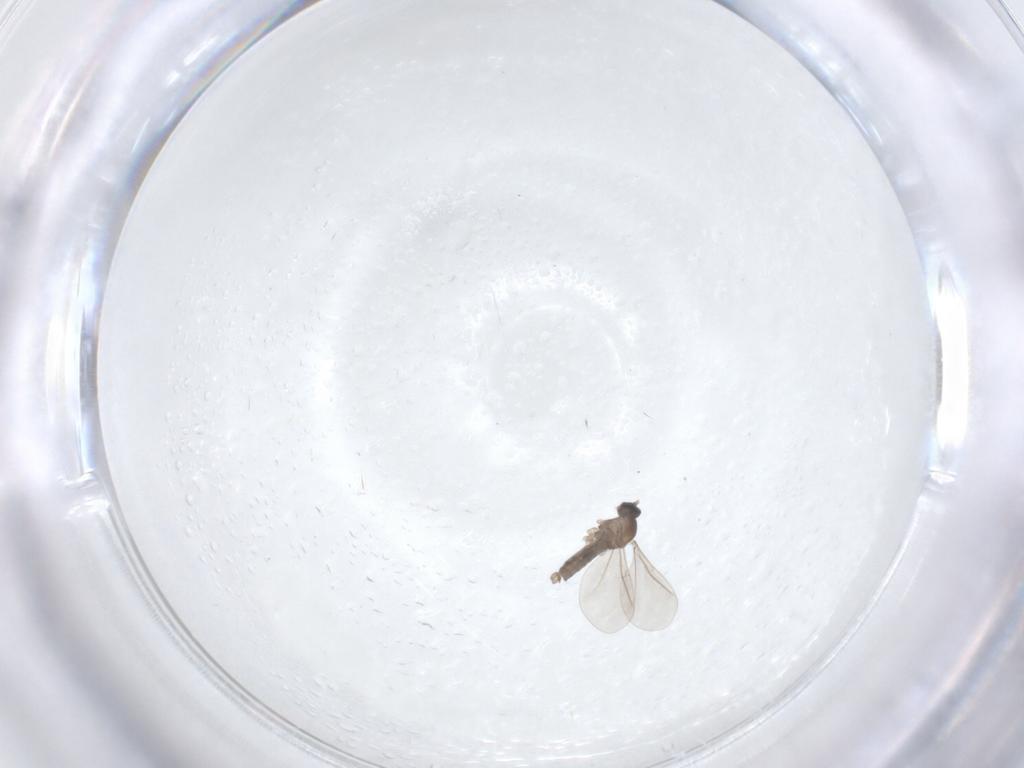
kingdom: Animalia
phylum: Arthropoda
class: Insecta
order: Diptera
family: Cecidomyiidae
